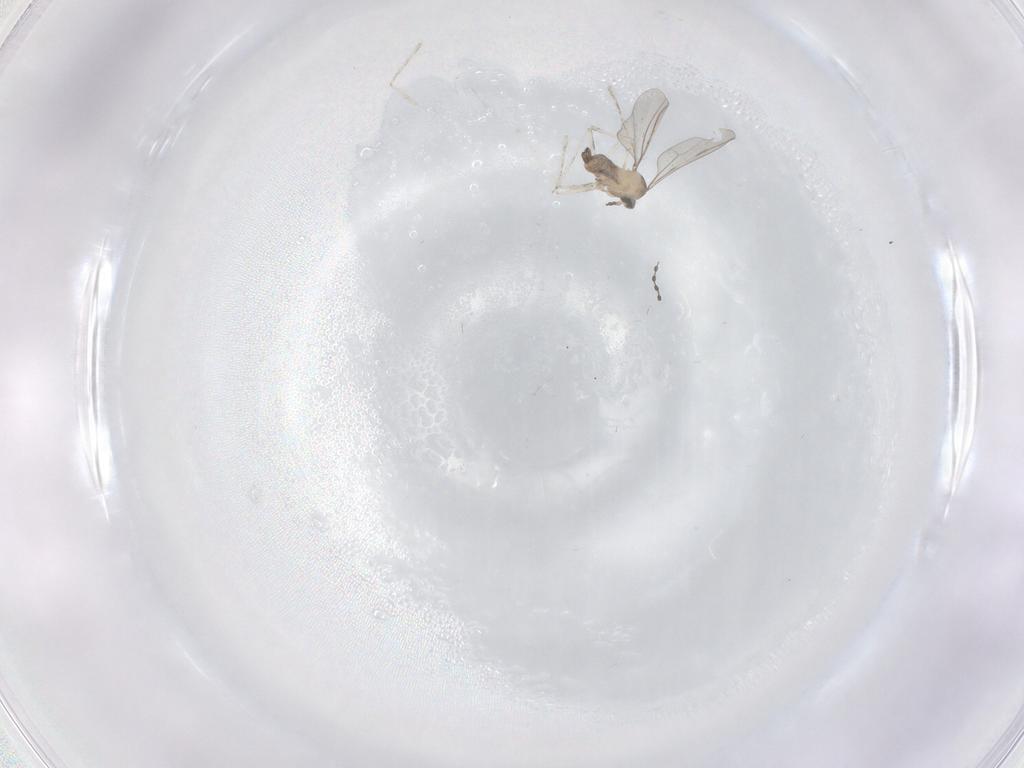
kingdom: Animalia
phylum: Arthropoda
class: Insecta
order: Diptera
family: Cecidomyiidae
